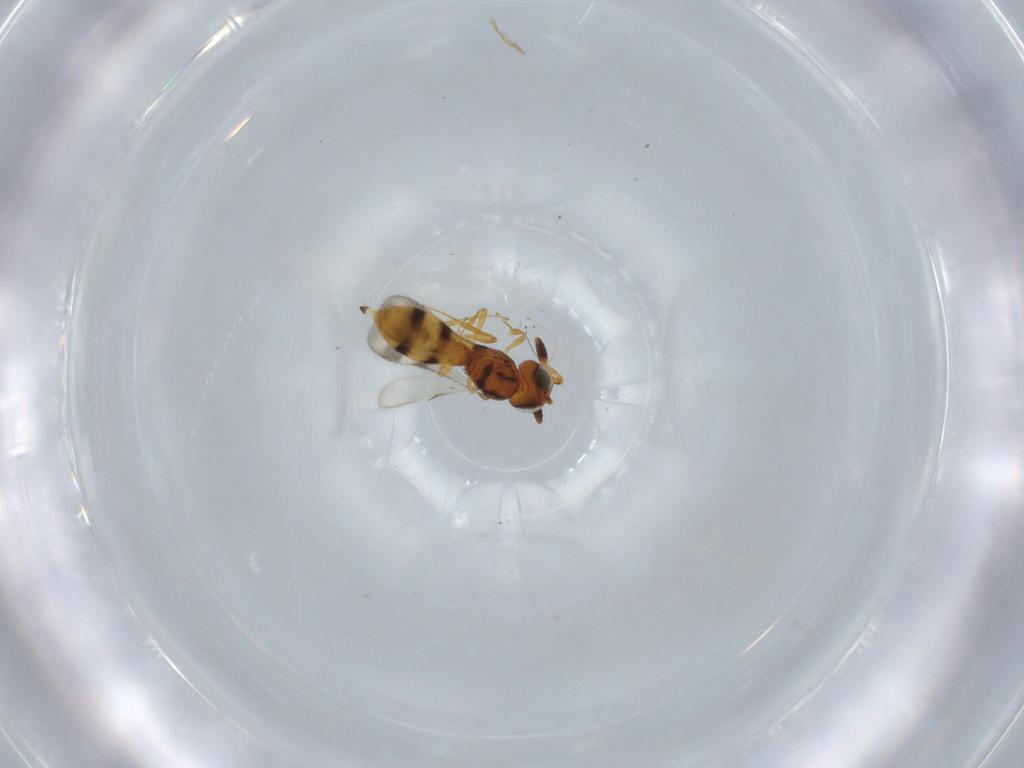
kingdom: Animalia
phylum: Arthropoda
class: Insecta
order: Hymenoptera
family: Scelionidae
